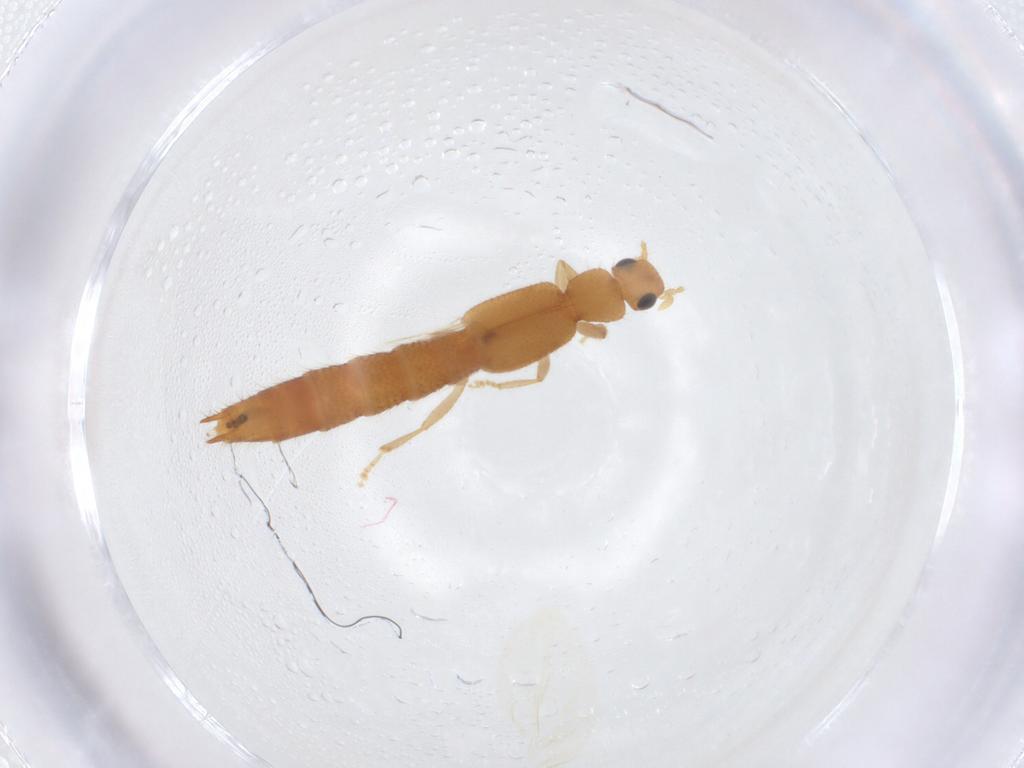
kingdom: Animalia
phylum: Arthropoda
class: Insecta
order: Coleoptera
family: Staphylinidae
